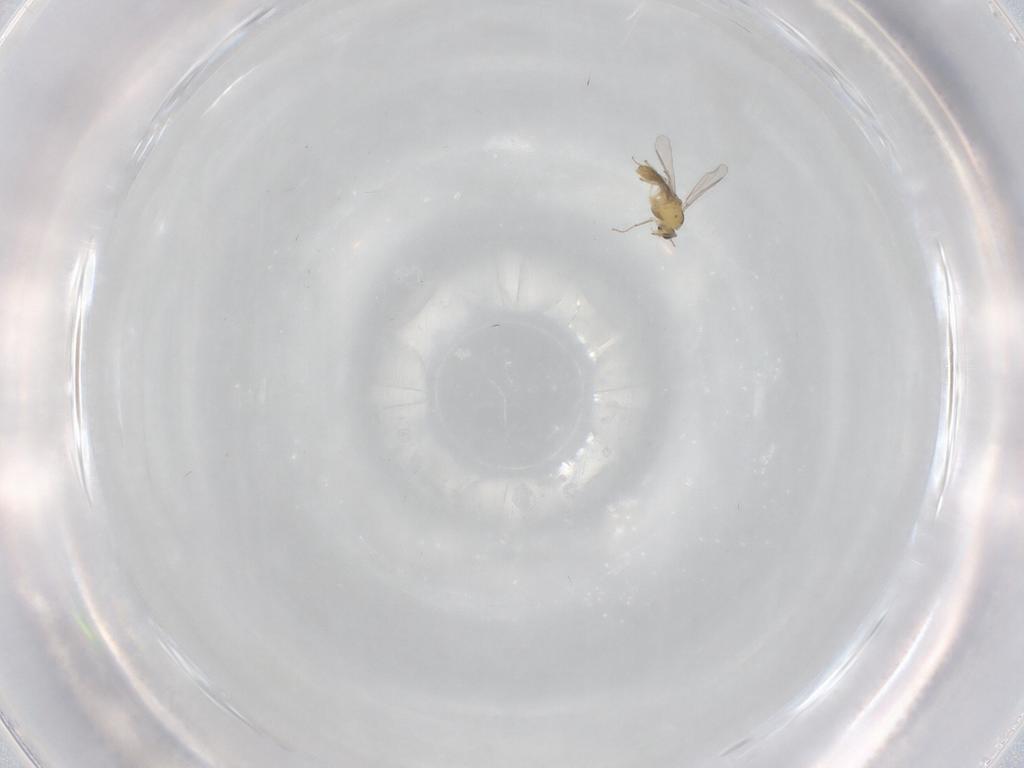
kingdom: Animalia
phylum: Arthropoda
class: Insecta
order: Diptera
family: Ceratopogonidae
